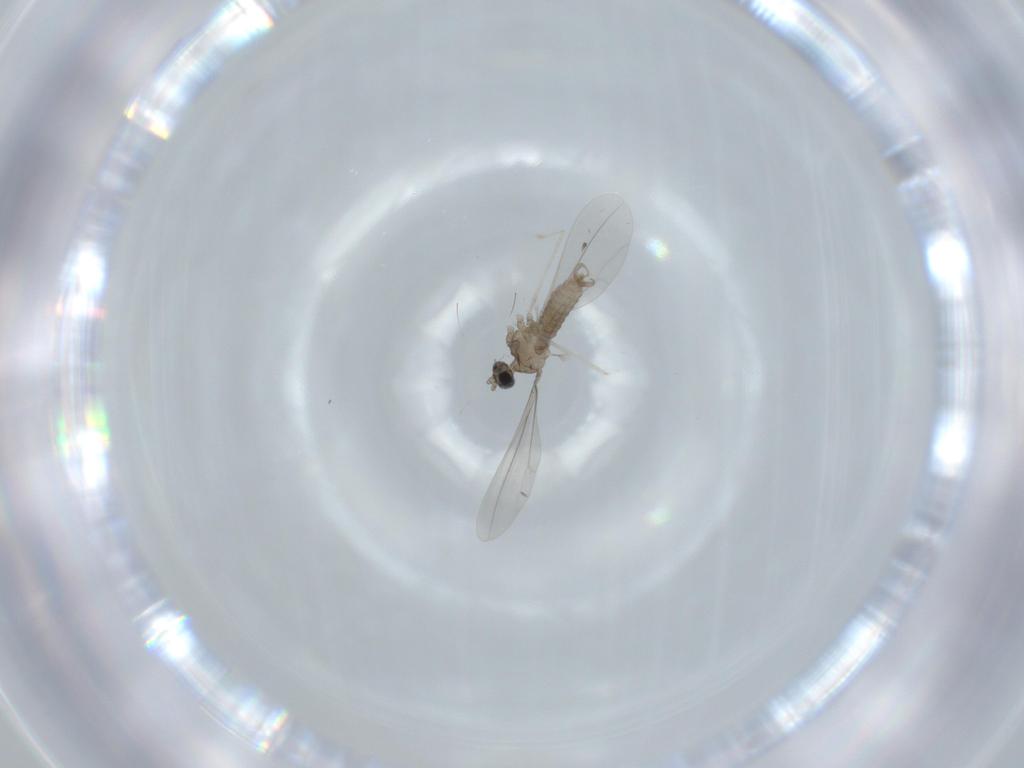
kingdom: Animalia
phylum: Arthropoda
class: Insecta
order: Diptera
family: Cecidomyiidae
